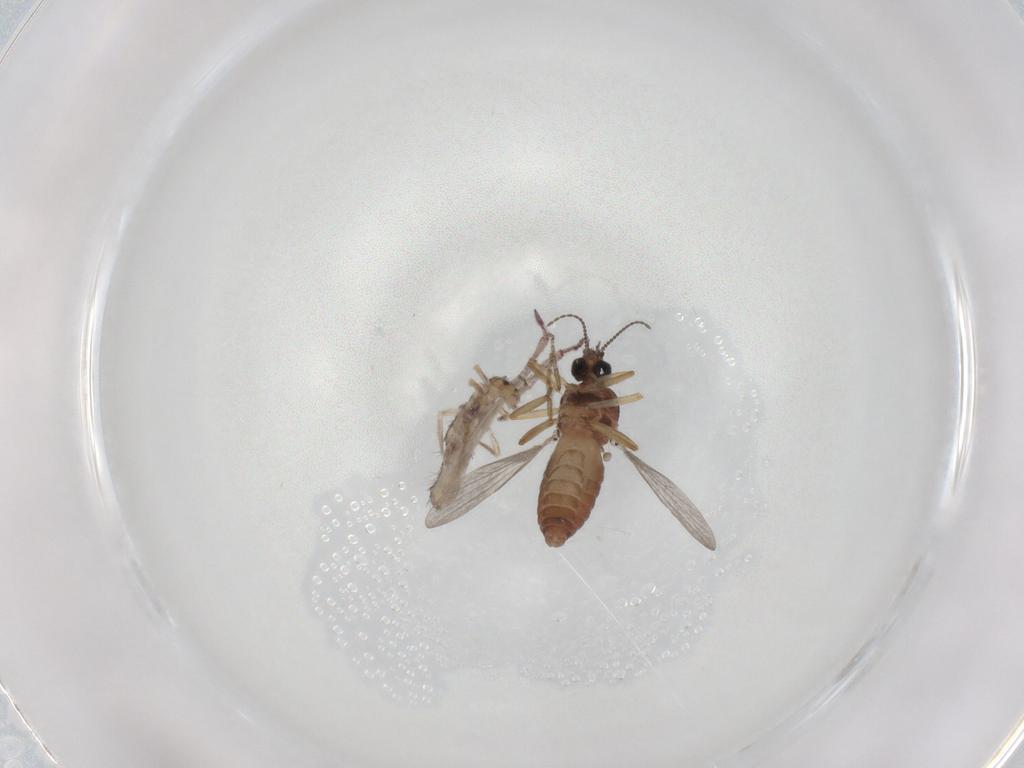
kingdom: Animalia
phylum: Arthropoda
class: Insecta
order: Diptera
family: Ceratopogonidae
